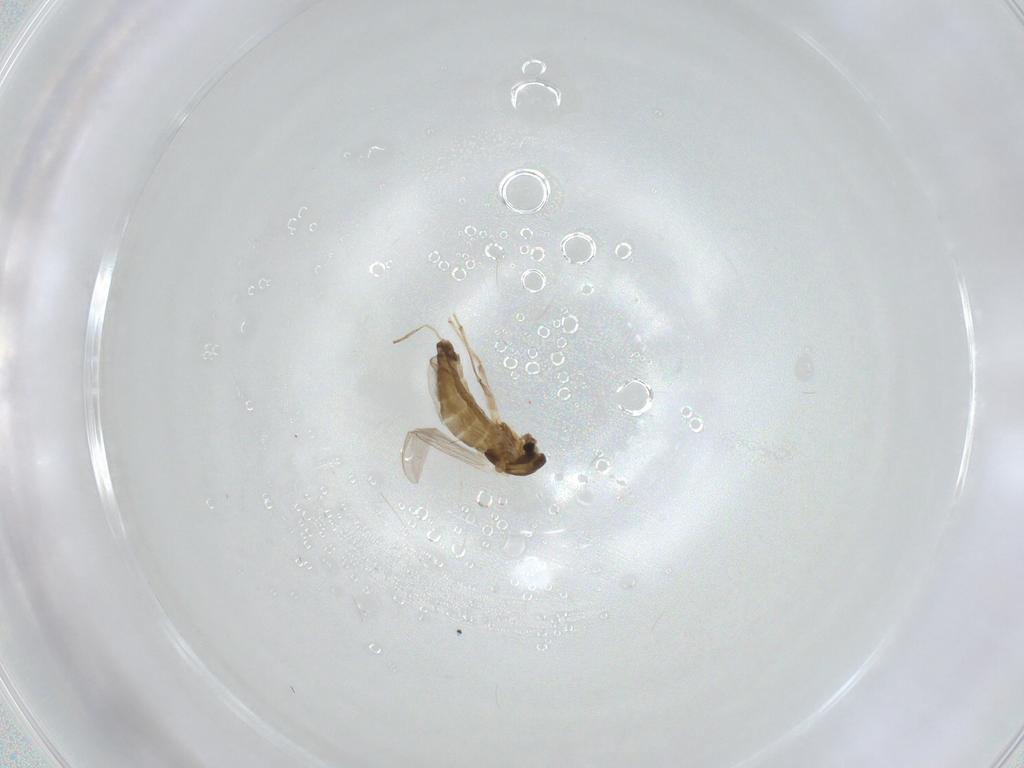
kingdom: Animalia
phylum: Arthropoda
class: Insecta
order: Diptera
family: Chironomidae
